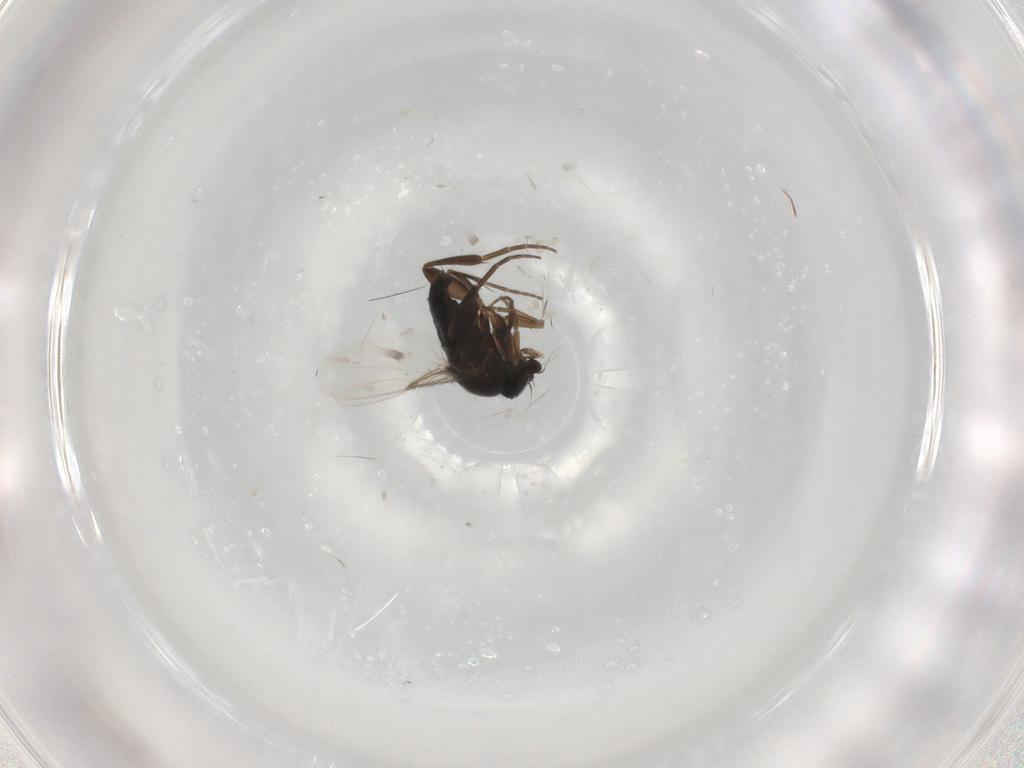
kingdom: Animalia
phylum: Arthropoda
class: Insecta
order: Diptera
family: Phoridae
